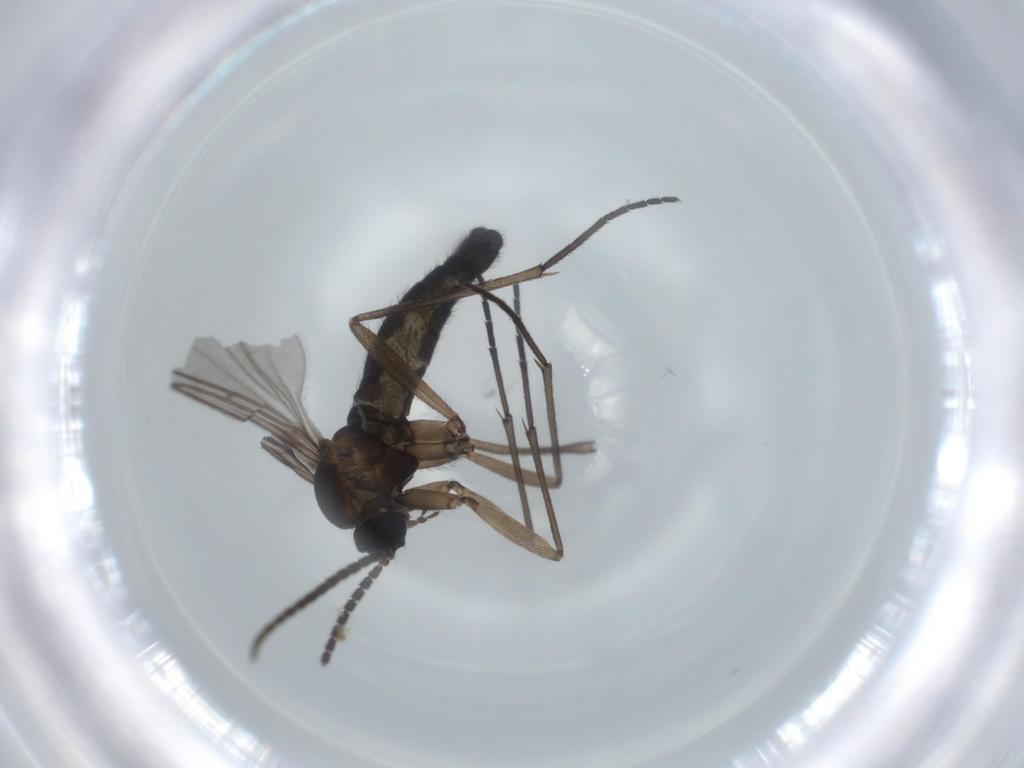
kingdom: Animalia
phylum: Arthropoda
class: Insecta
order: Diptera
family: Sciaridae
